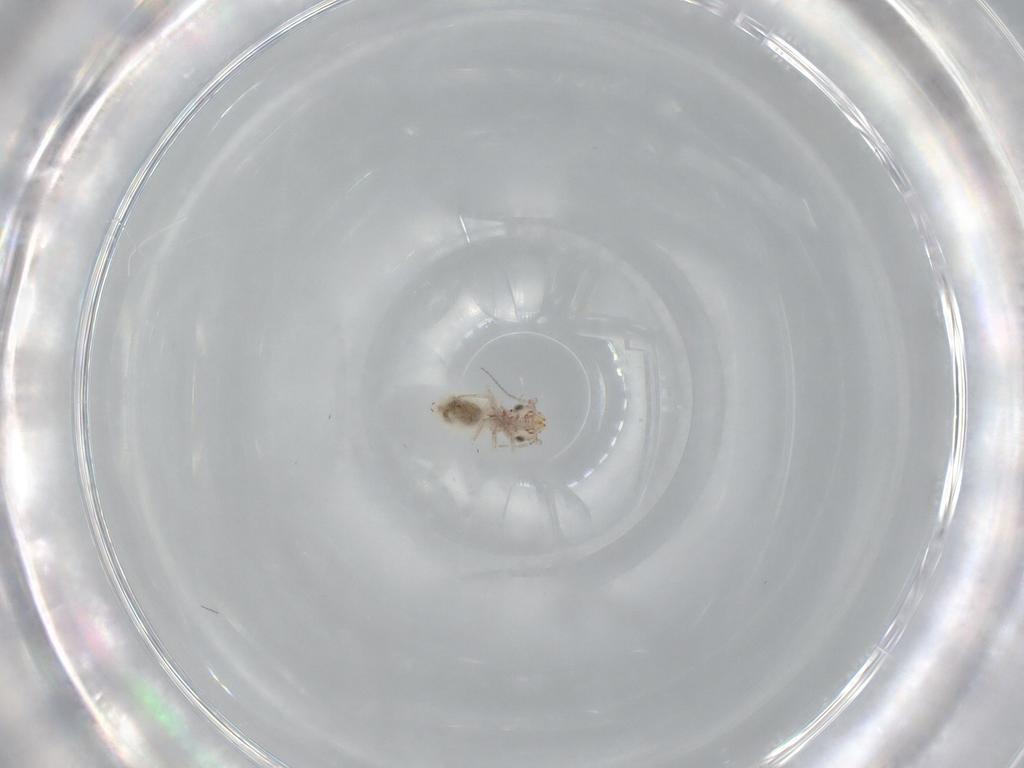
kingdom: Animalia
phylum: Arthropoda
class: Insecta
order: Psocodea
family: Lepidopsocidae
